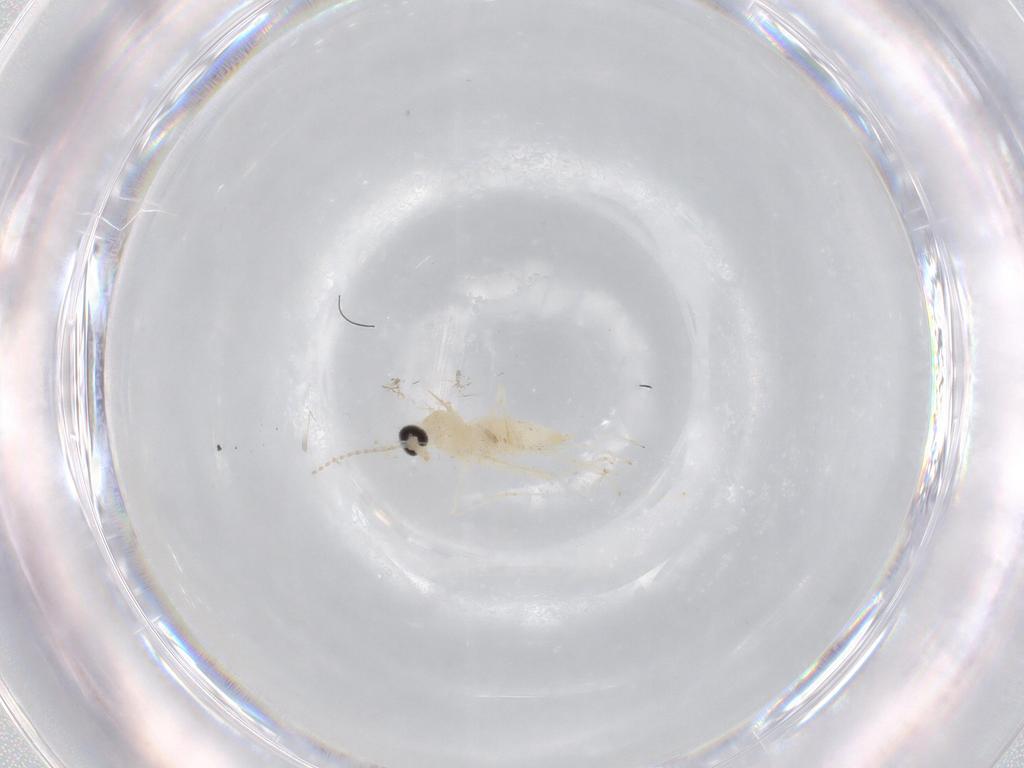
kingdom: Animalia
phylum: Arthropoda
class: Insecta
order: Diptera
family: Cecidomyiidae
